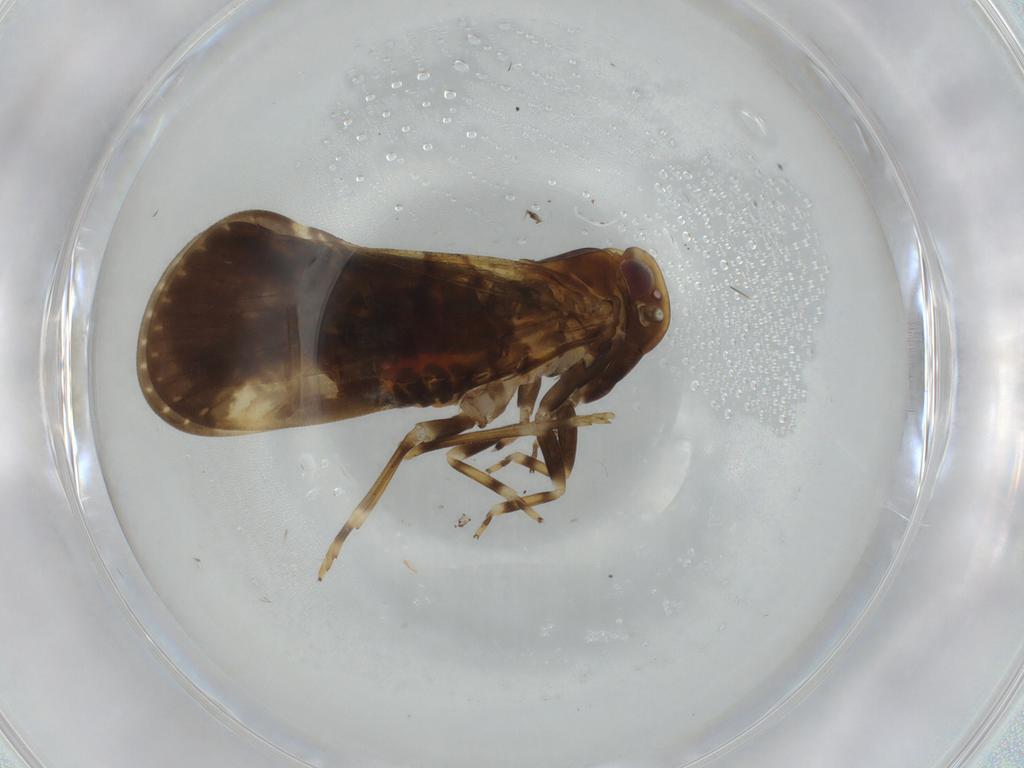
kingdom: Animalia
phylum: Arthropoda
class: Insecta
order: Hemiptera
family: Cixiidae
